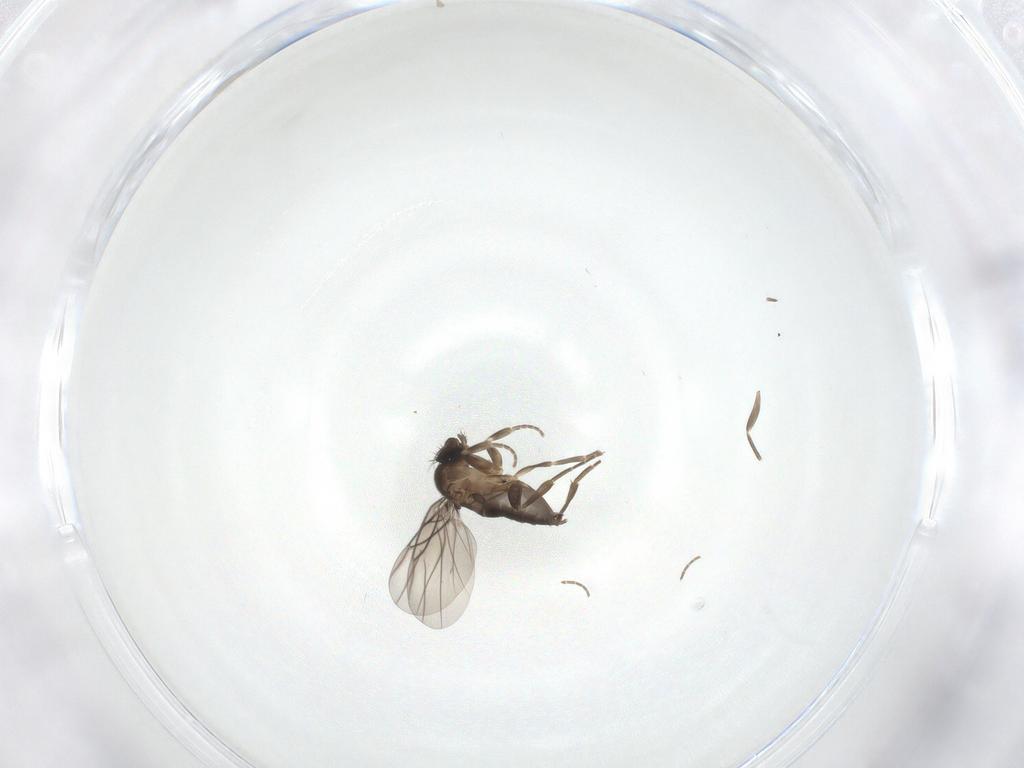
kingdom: Animalia
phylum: Arthropoda
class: Insecta
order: Diptera
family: Phoridae
